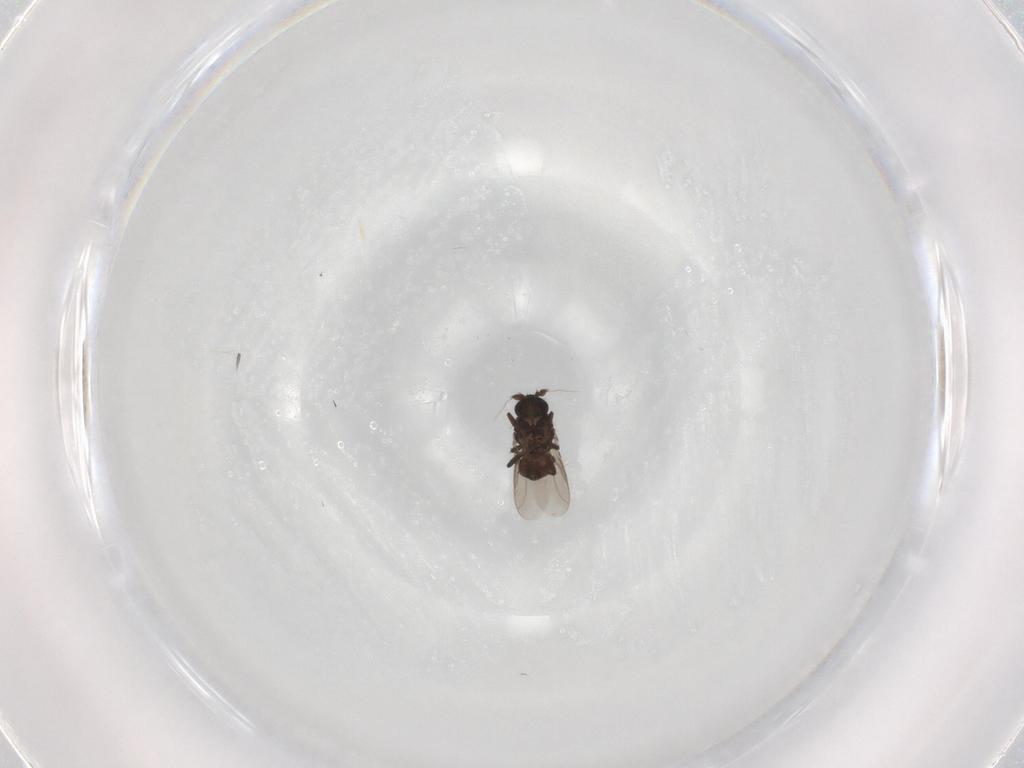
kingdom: Animalia
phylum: Arthropoda
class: Insecta
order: Diptera
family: Sphaeroceridae
